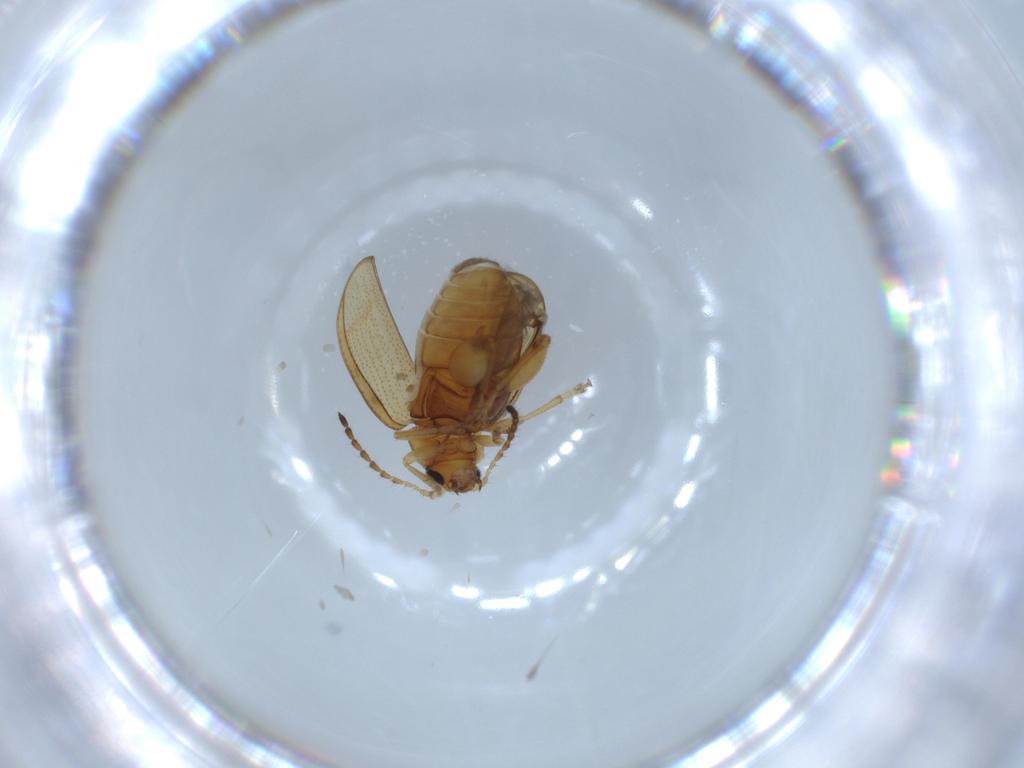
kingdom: Animalia
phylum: Arthropoda
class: Insecta
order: Coleoptera
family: Chrysomelidae
